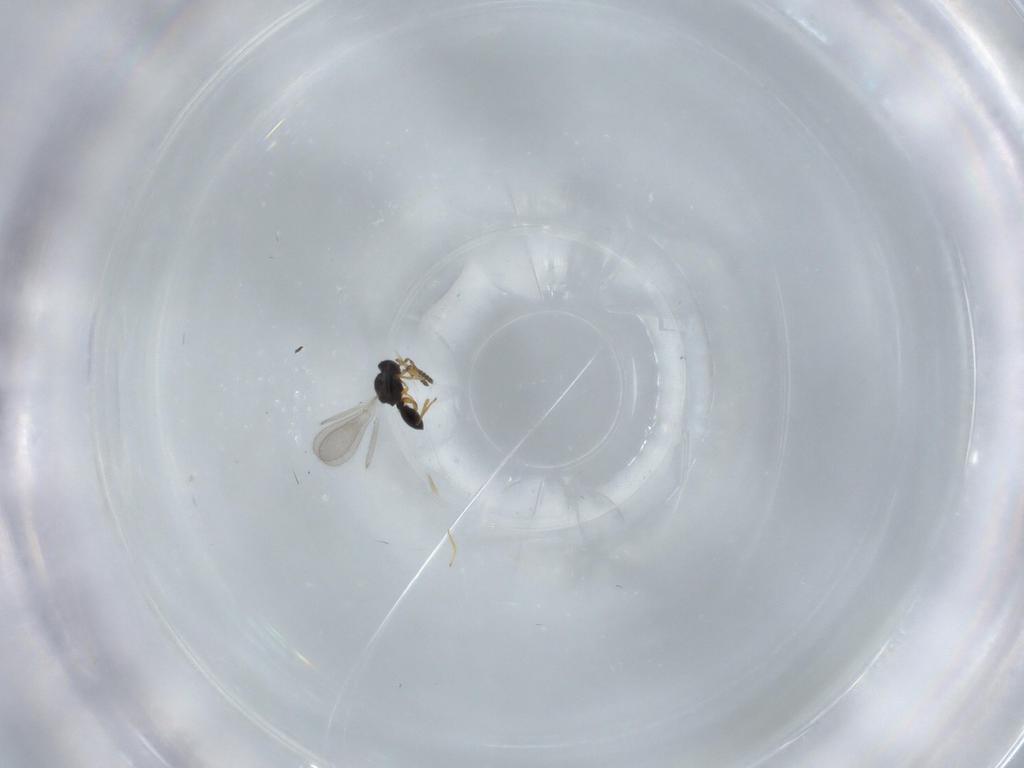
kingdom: Animalia
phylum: Arthropoda
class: Insecta
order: Hymenoptera
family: Platygastridae
